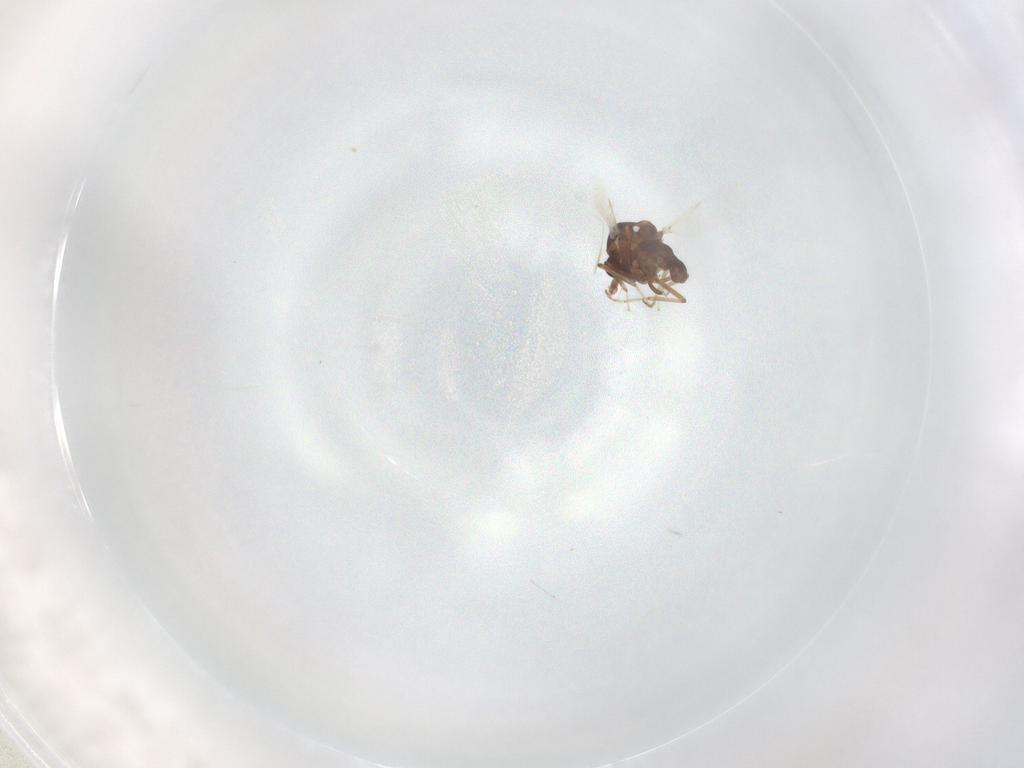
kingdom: Animalia
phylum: Arthropoda
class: Insecta
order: Diptera
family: Ceratopogonidae
